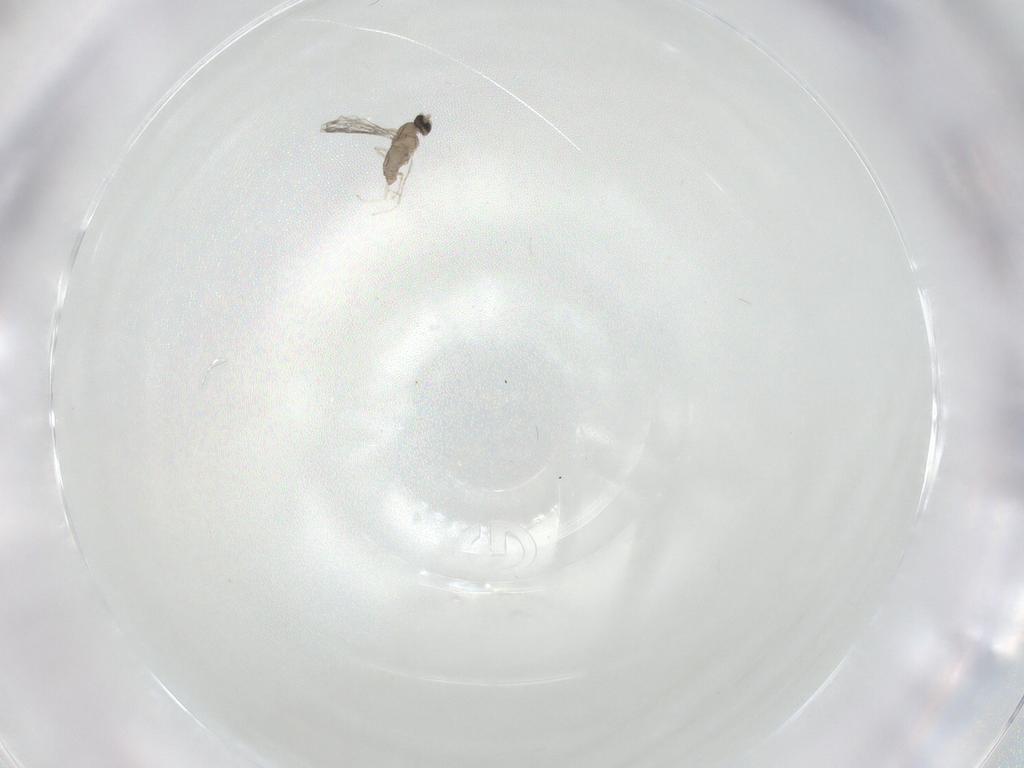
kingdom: Animalia
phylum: Arthropoda
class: Insecta
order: Diptera
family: Cecidomyiidae
